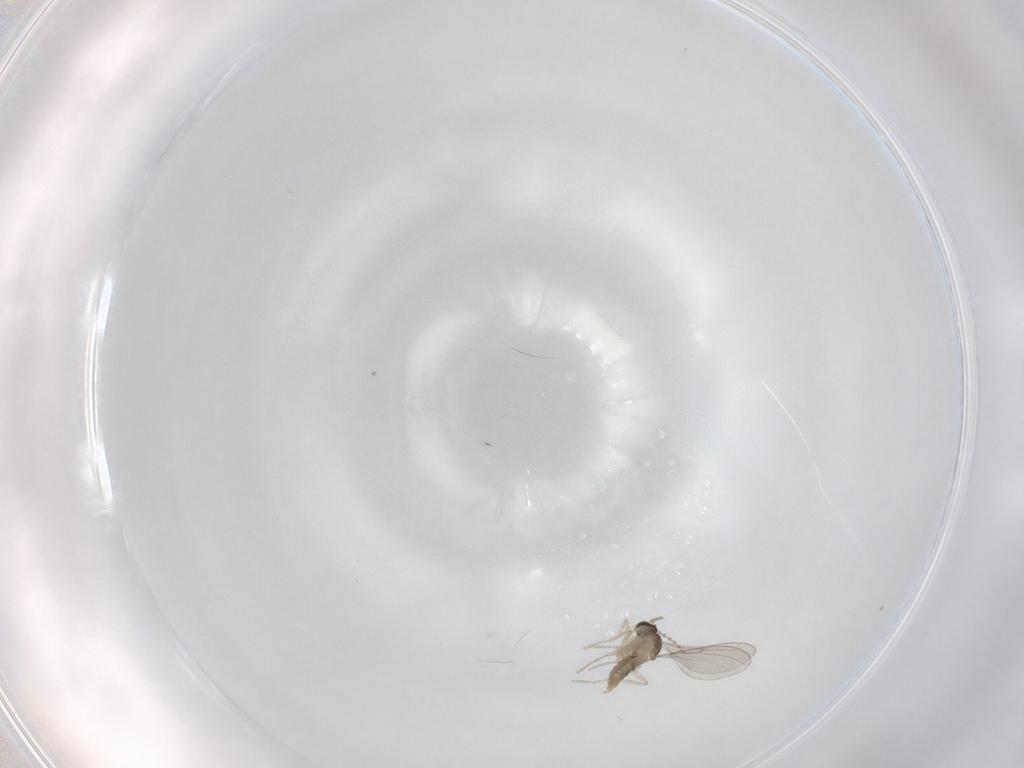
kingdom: Animalia
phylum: Arthropoda
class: Insecta
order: Diptera
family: Cecidomyiidae
